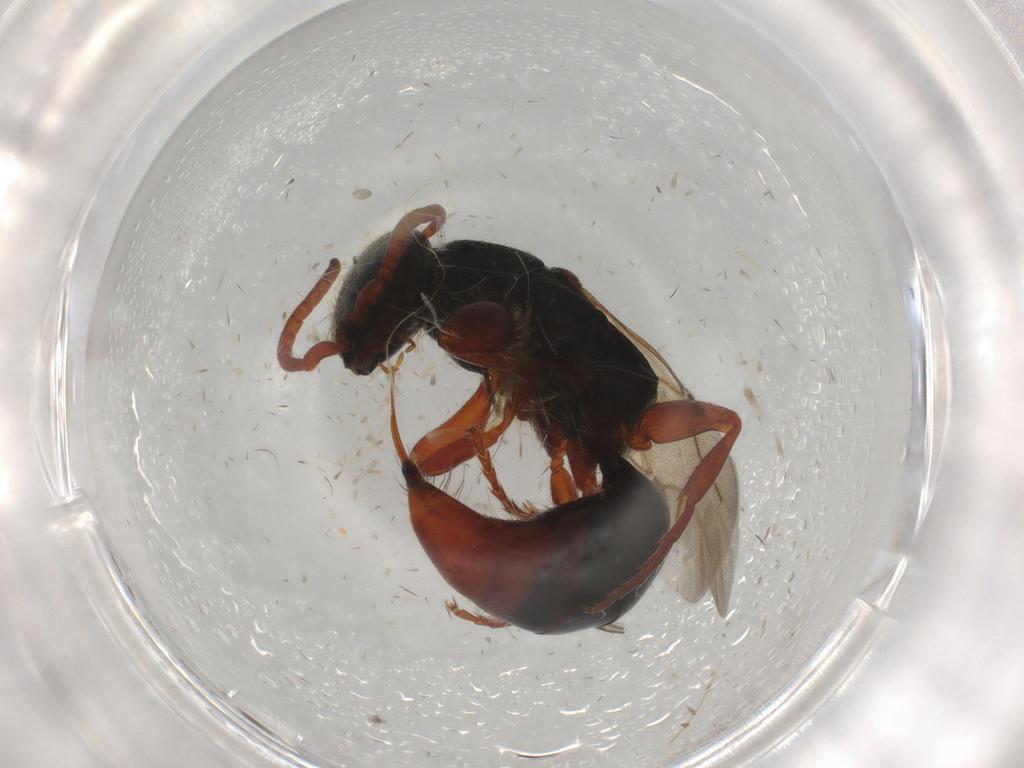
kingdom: Animalia
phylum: Arthropoda
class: Insecta
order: Hymenoptera
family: Bethylidae
